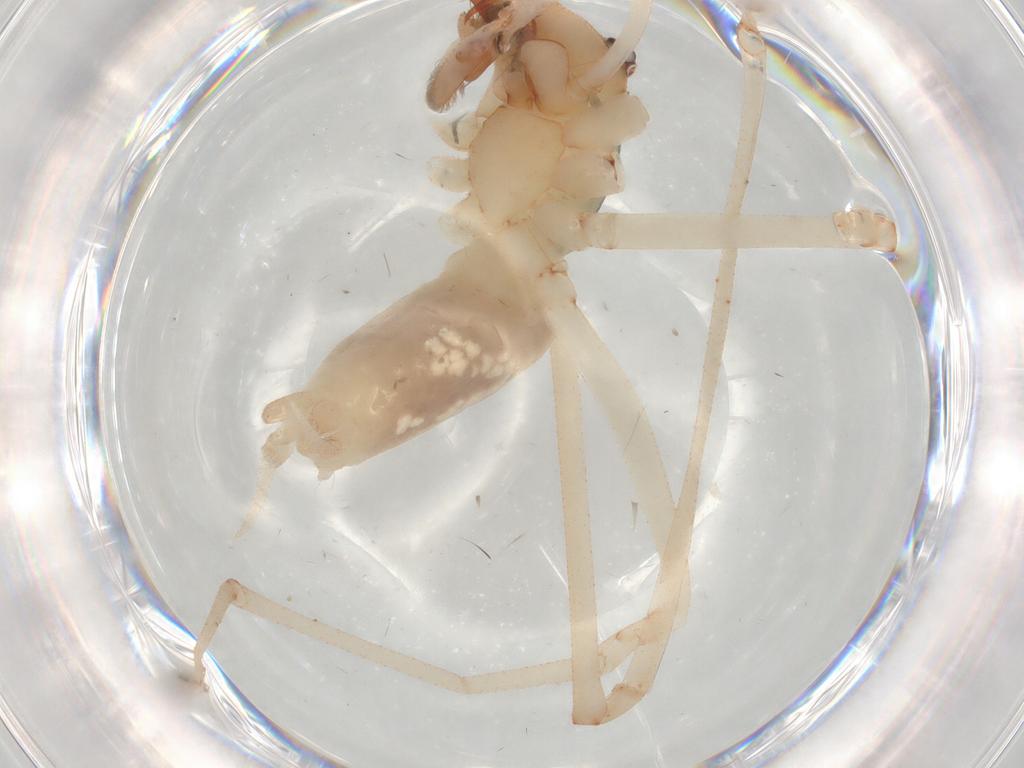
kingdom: Animalia
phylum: Arthropoda
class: Arachnida
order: Araneae
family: Cheiracanthiidae
